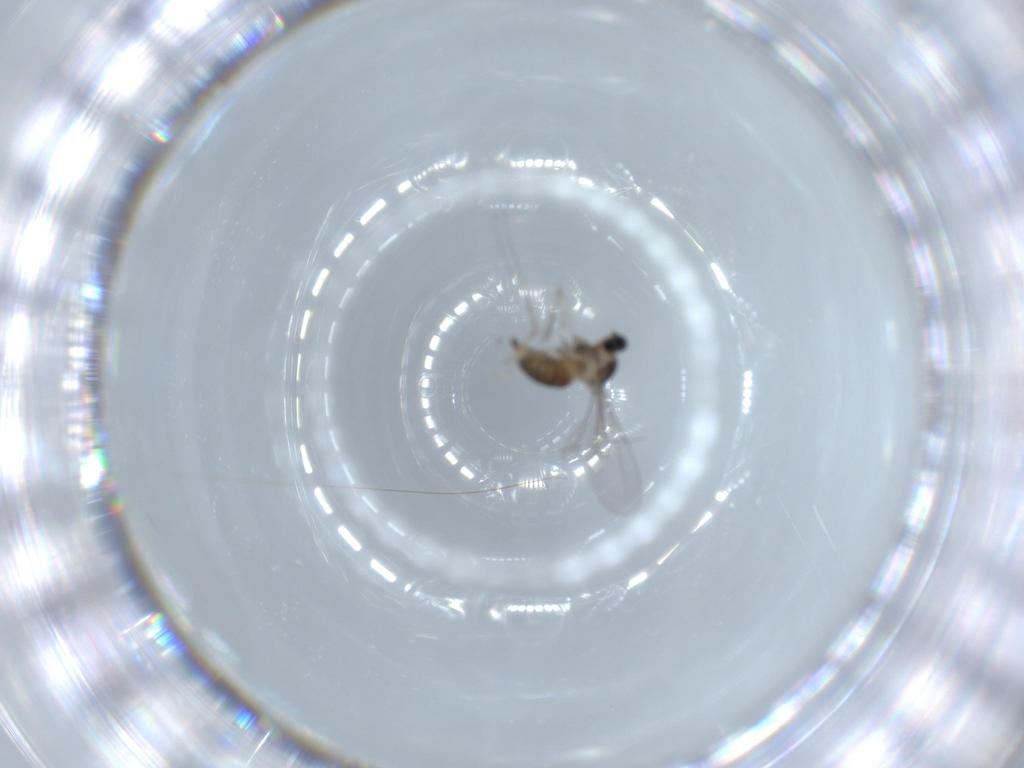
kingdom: Animalia
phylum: Arthropoda
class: Insecta
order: Diptera
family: Cecidomyiidae
